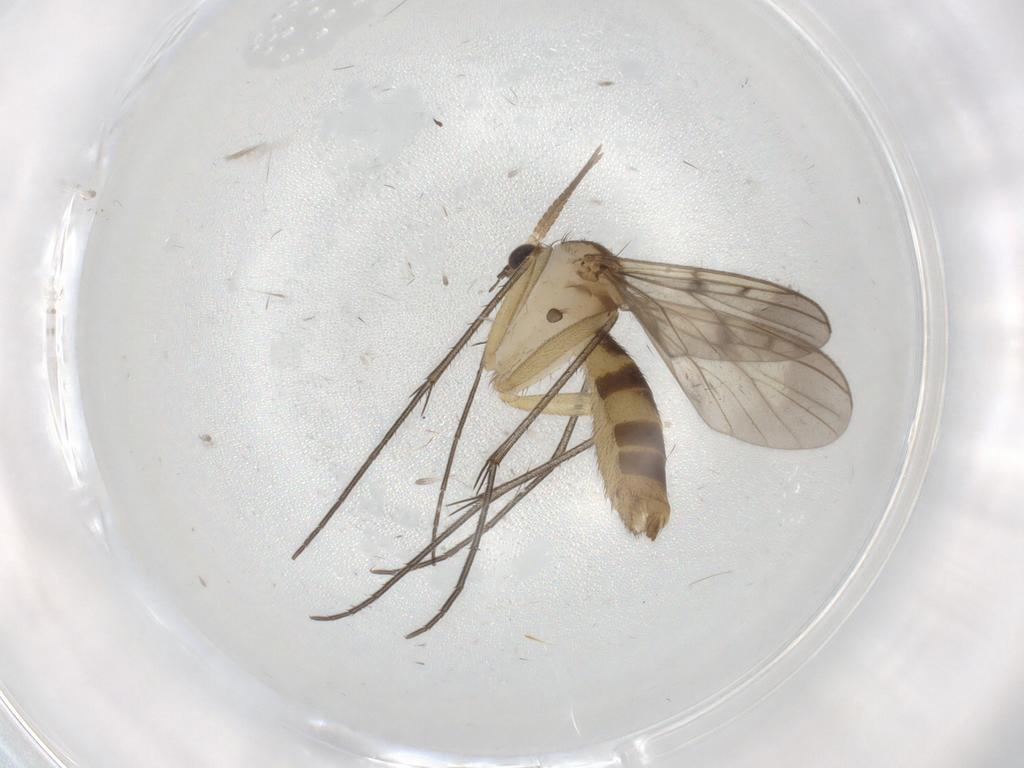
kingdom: Animalia
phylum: Arthropoda
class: Insecta
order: Diptera
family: Mycetophilidae
